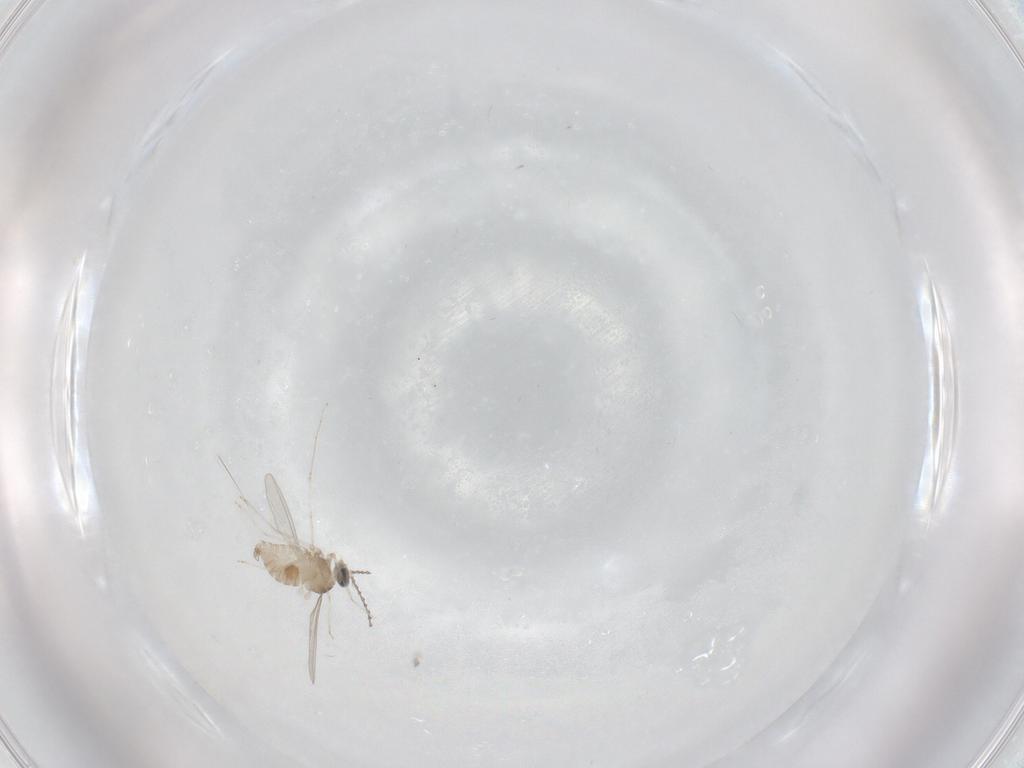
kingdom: Animalia
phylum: Arthropoda
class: Insecta
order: Diptera
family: Cecidomyiidae
